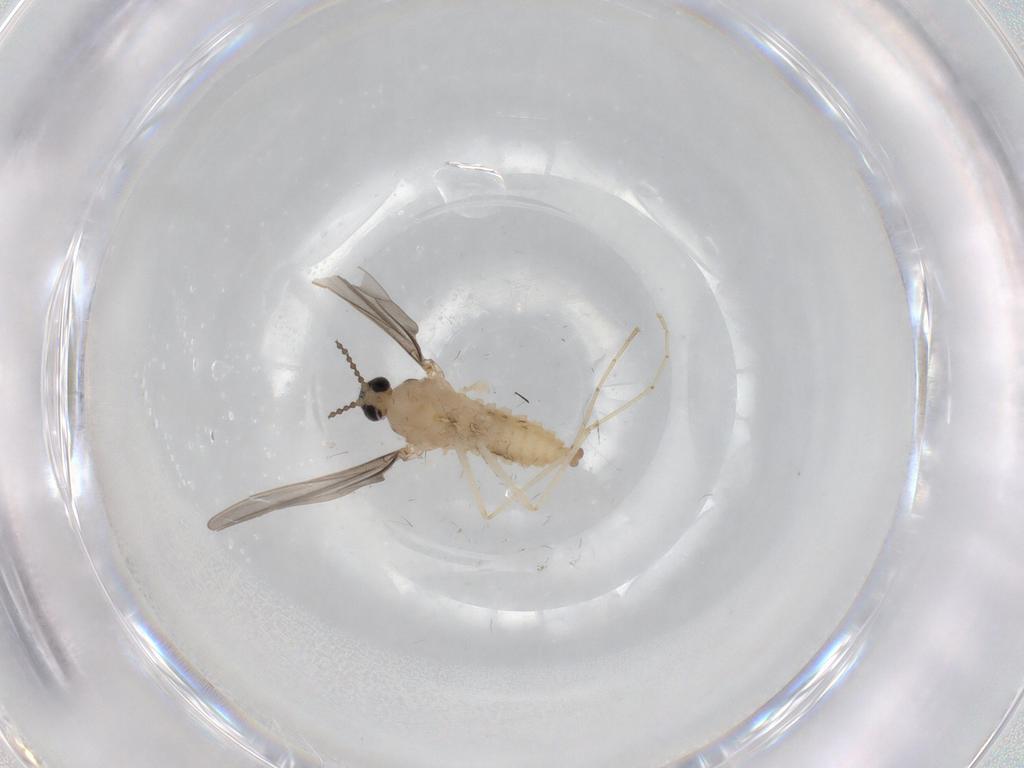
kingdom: Animalia
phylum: Arthropoda
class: Insecta
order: Diptera
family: Cecidomyiidae
